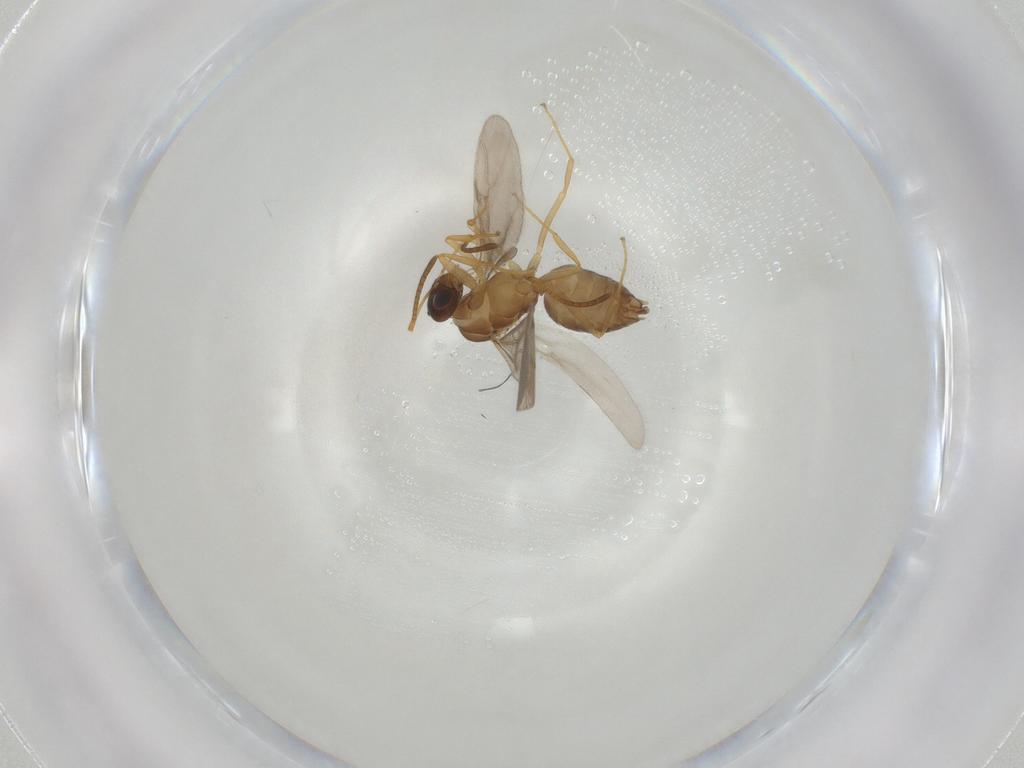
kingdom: Animalia
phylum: Arthropoda
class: Insecta
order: Hymenoptera
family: Formicidae
